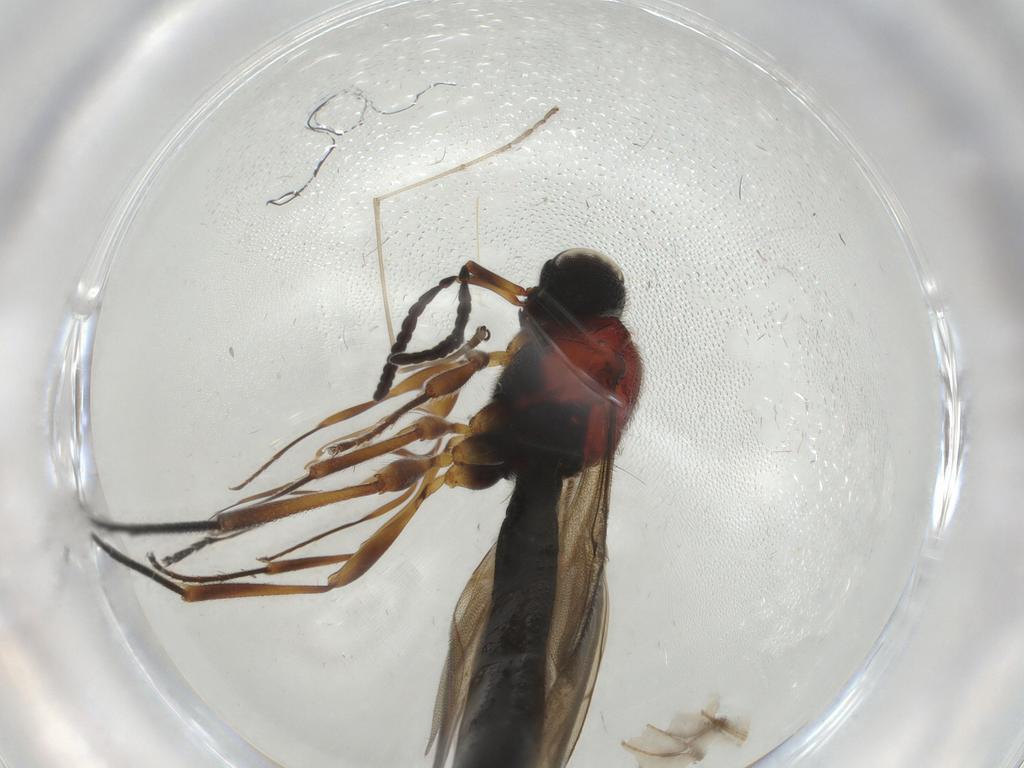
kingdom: Animalia
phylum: Arthropoda
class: Insecta
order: Hymenoptera
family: Scelionidae
